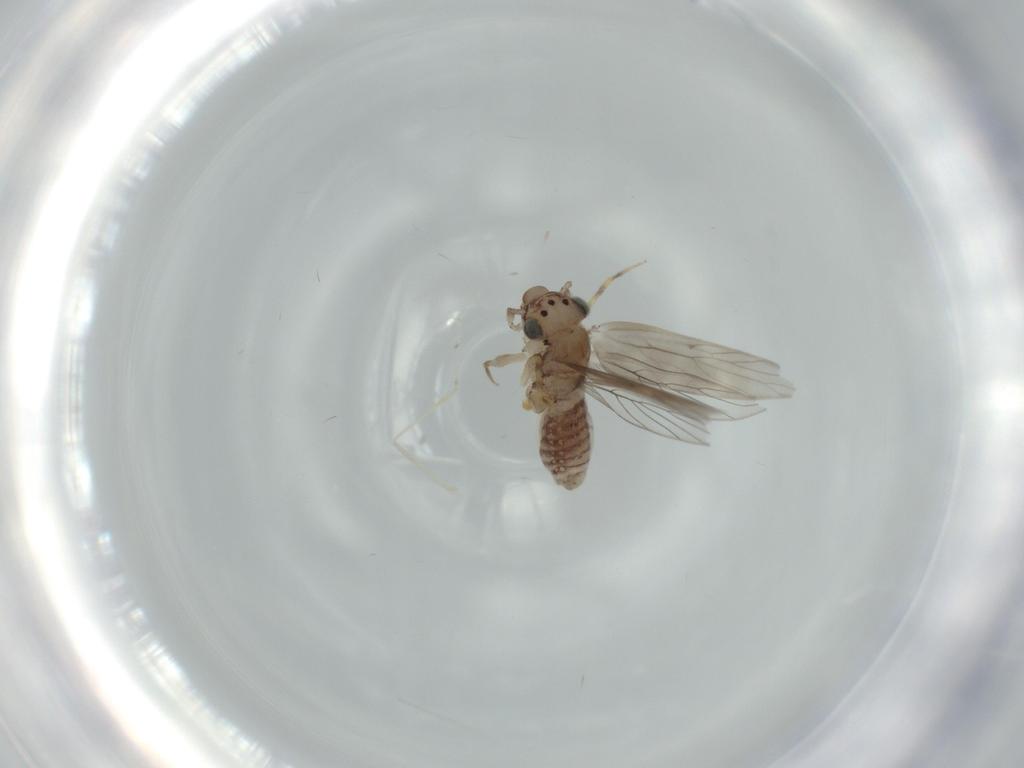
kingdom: Animalia
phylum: Arthropoda
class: Insecta
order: Psocodea
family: Lepidopsocidae
